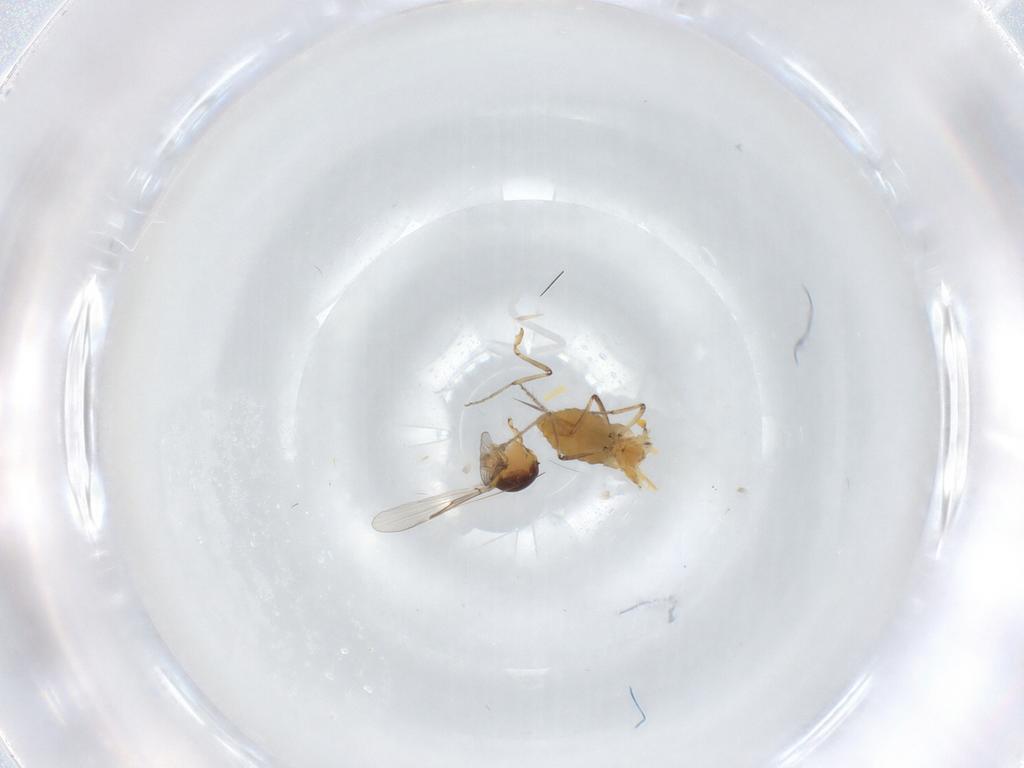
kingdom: Animalia
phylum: Arthropoda
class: Insecta
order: Diptera
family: Ceratopogonidae
